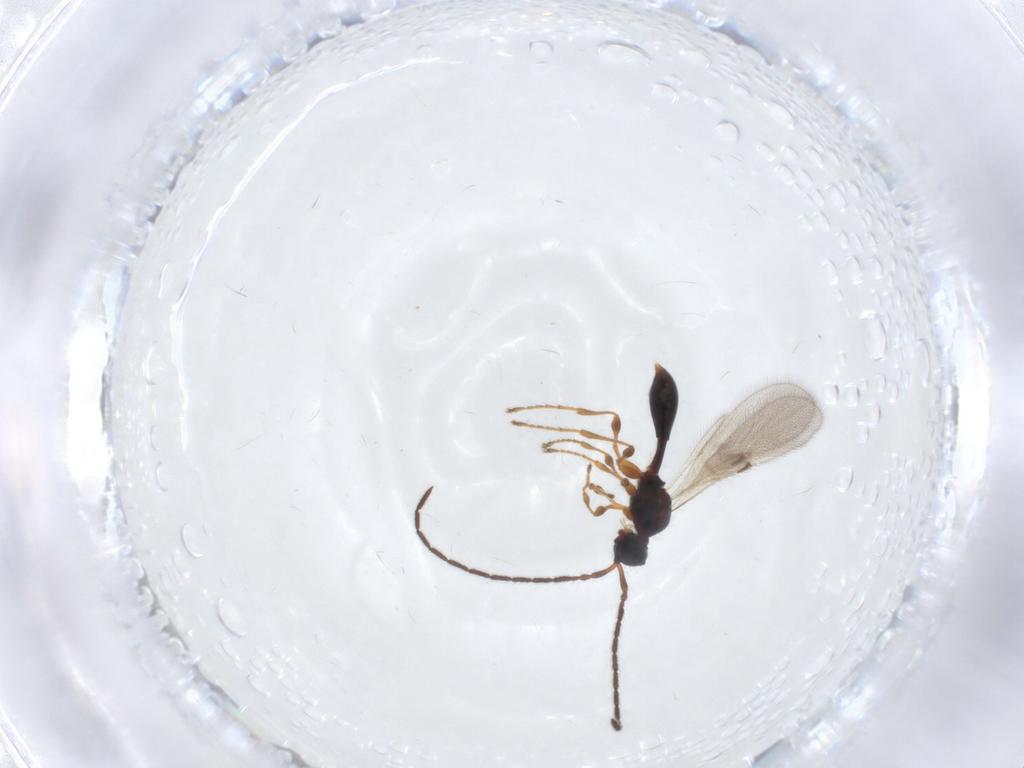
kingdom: Animalia
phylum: Arthropoda
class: Insecta
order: Hymenoptera
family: Diapriidae
